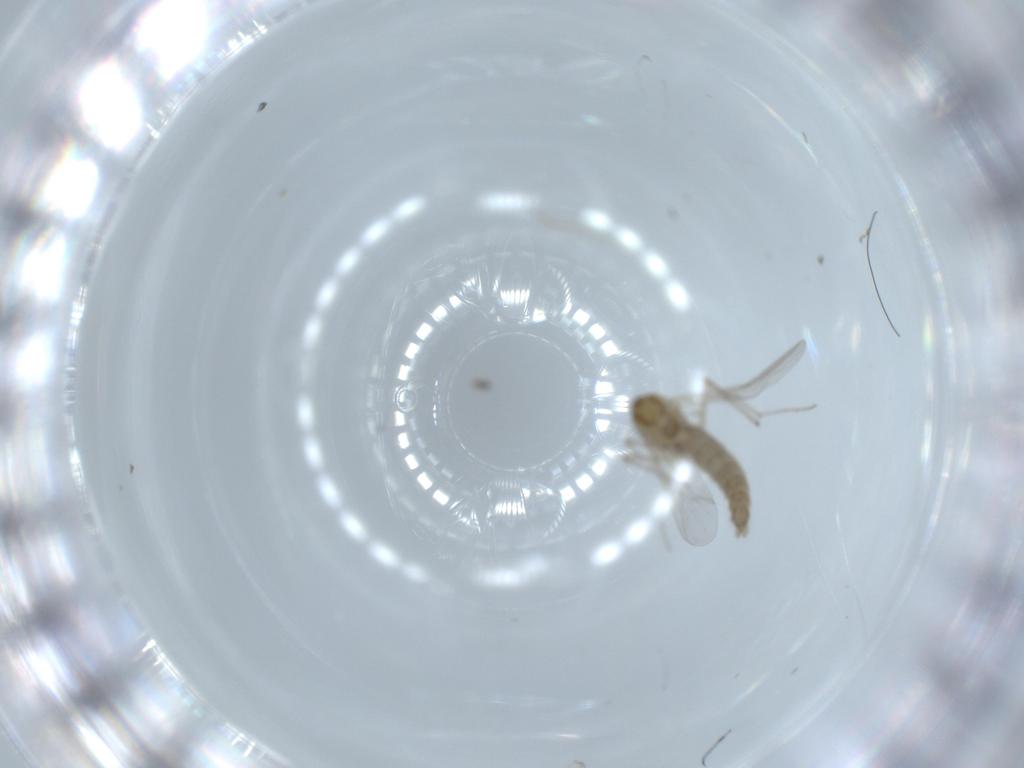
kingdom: Animalia
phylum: Arthropoda
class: Insecta
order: Diptera
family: Chironomidae
